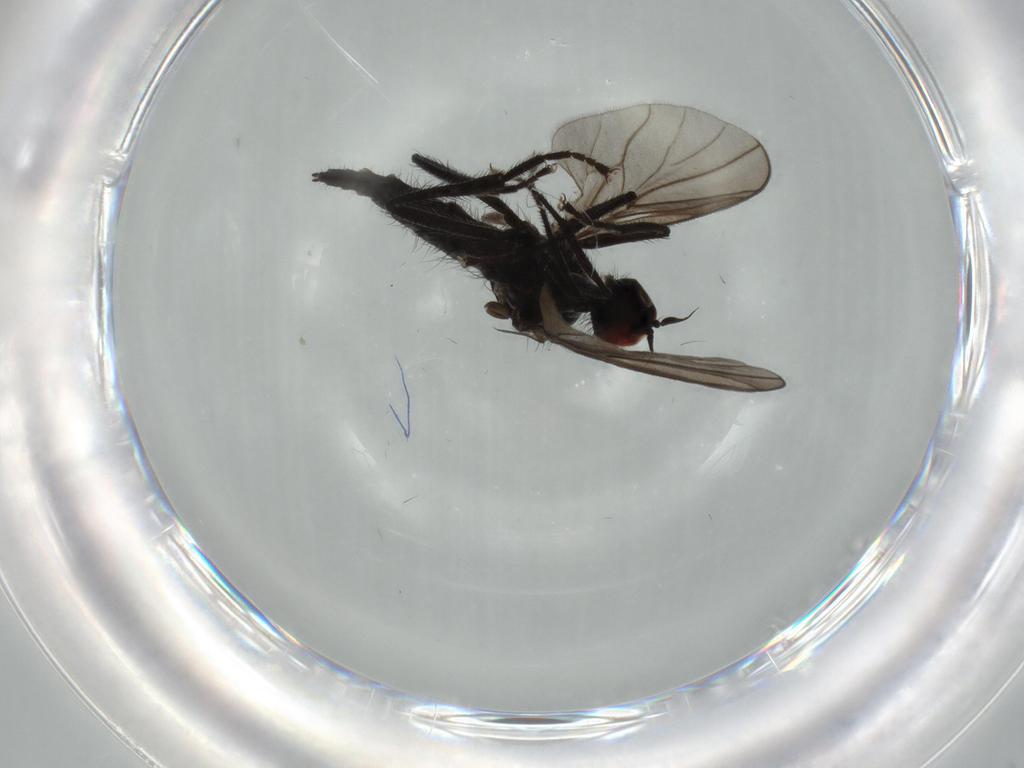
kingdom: Animalia
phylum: Arthropoda
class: Insecta
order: Diptera
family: Hybotidae
